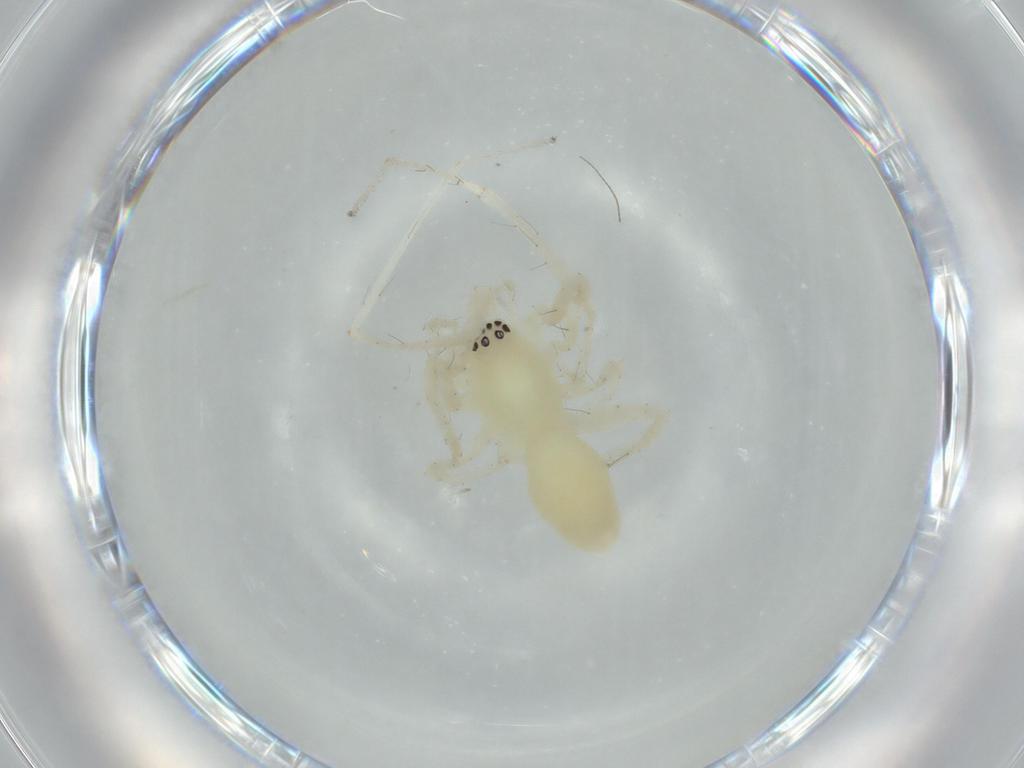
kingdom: Animalia
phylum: Arthropoda
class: Arachnida
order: Araneae
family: Anyphaenidae
